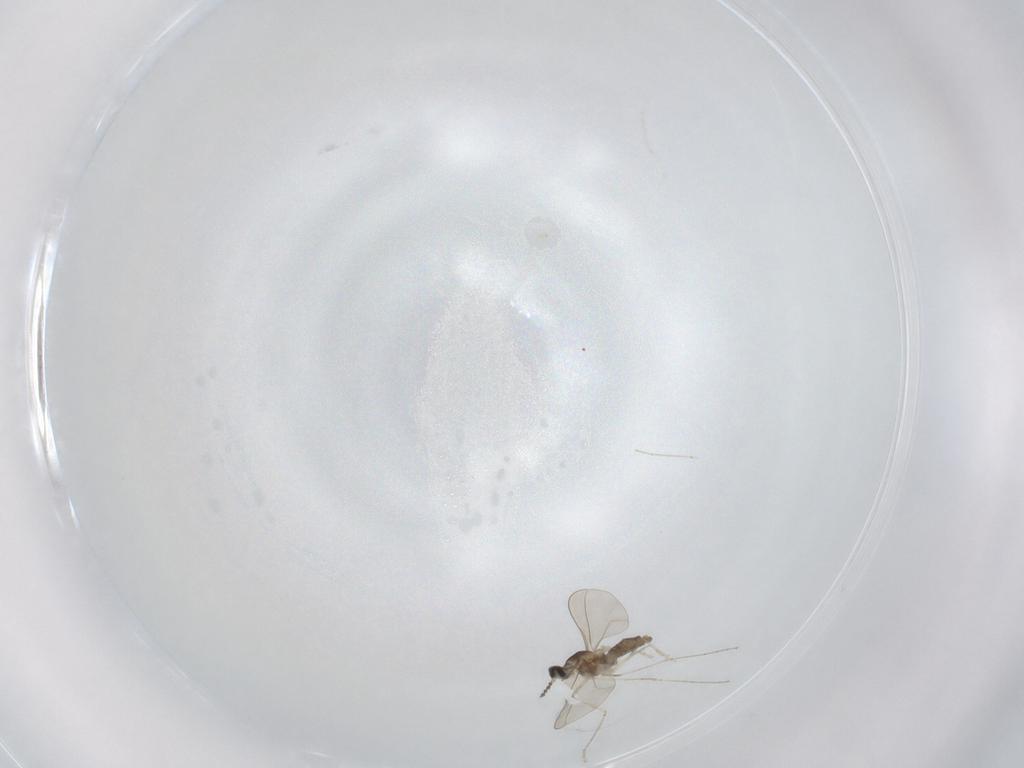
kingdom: Animalia
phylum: Arthropoda
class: Insecta
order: Diptera
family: Cecidomyiidae
